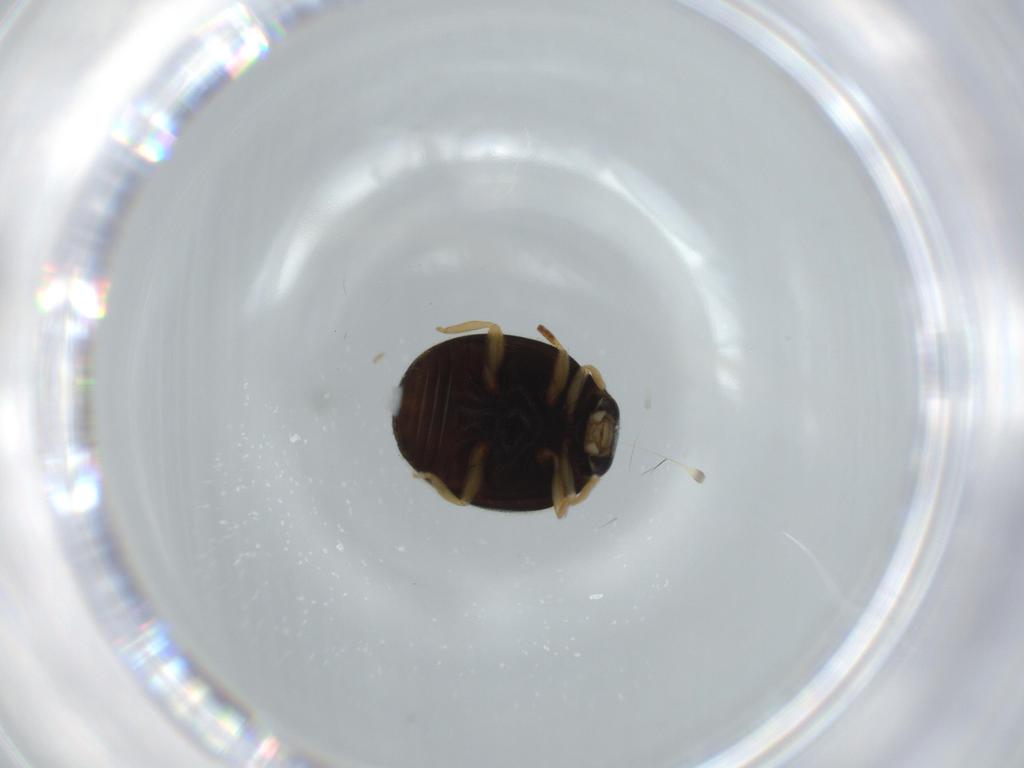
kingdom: Animalia
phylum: Arthropoda
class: Insecta
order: Coleoptera
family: Coccinellidae
